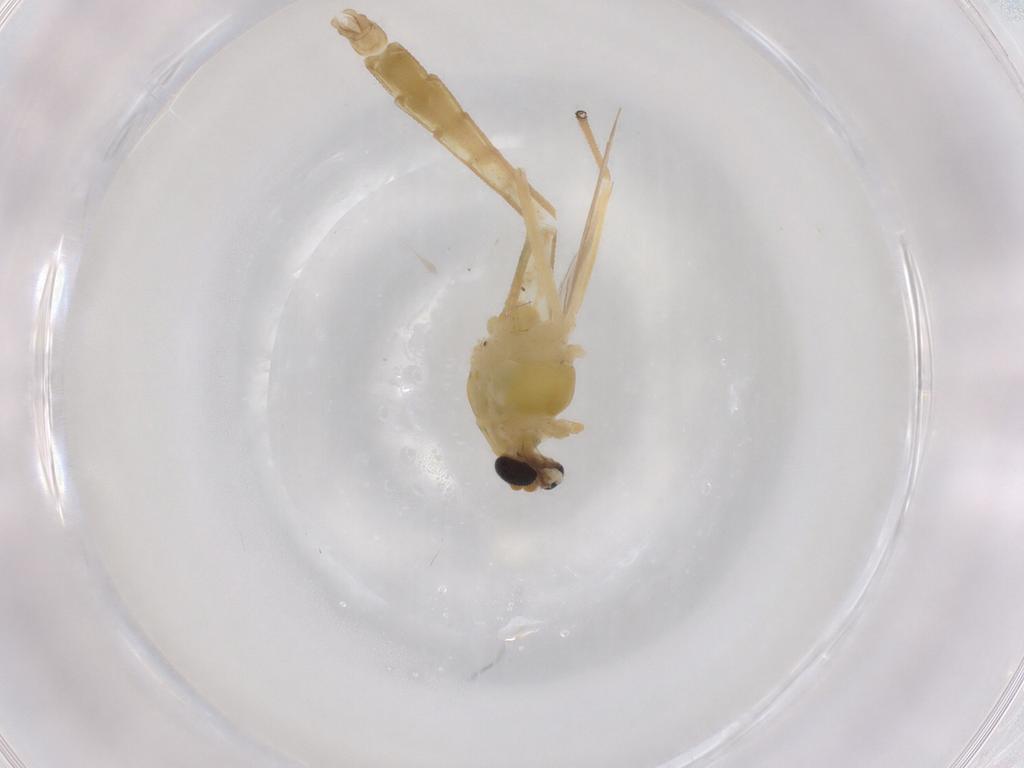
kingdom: Animalia
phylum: Arthropoda
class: Insecta
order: Diptera
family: Chironomidae
